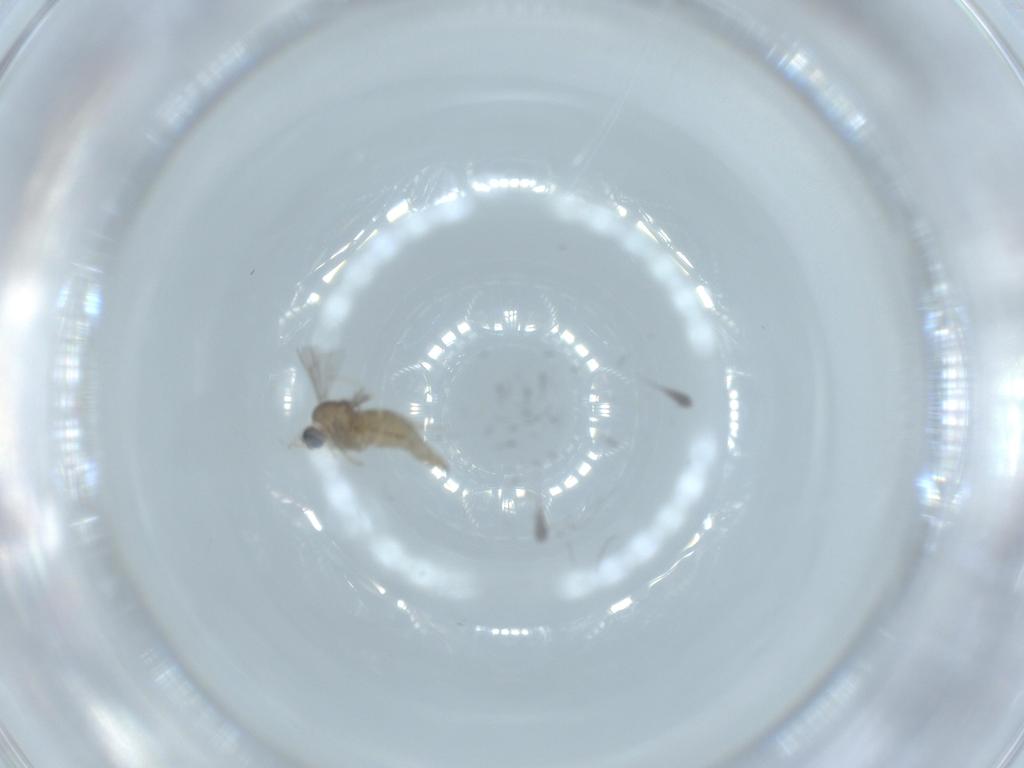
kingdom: Animalia
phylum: Arthropoda
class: Insecta
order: Diptera
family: Cecidomyiidae
